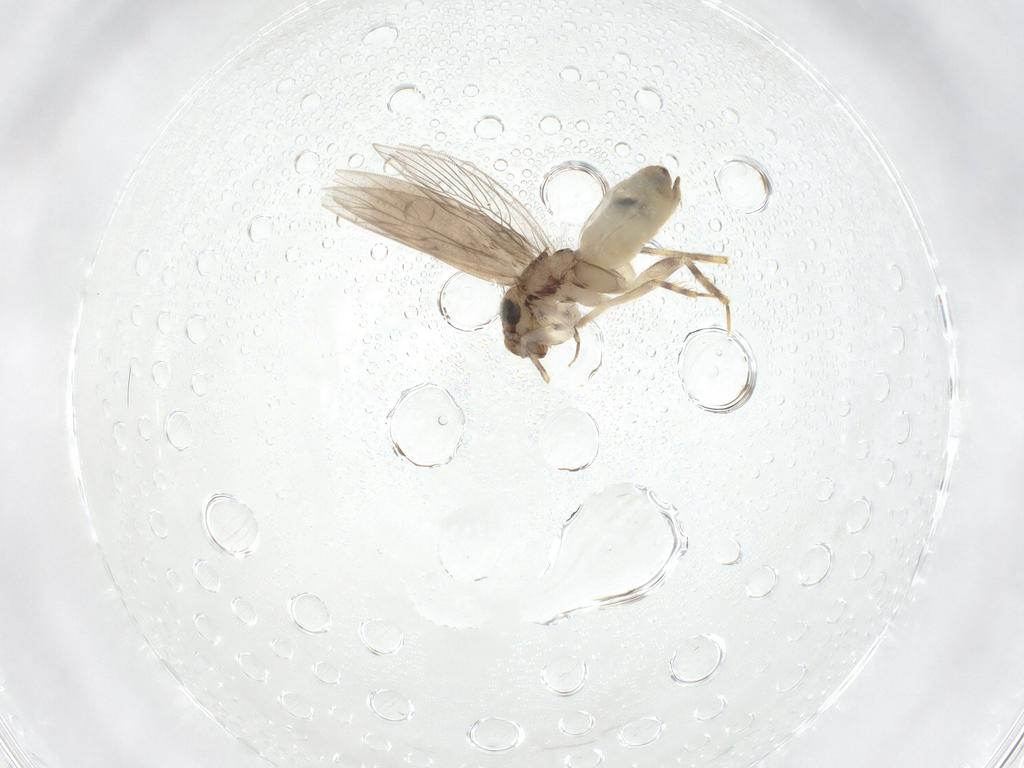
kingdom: Animalia
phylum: Arthropoda
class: Insecta
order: Psocodea
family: Lepidopsocidae
